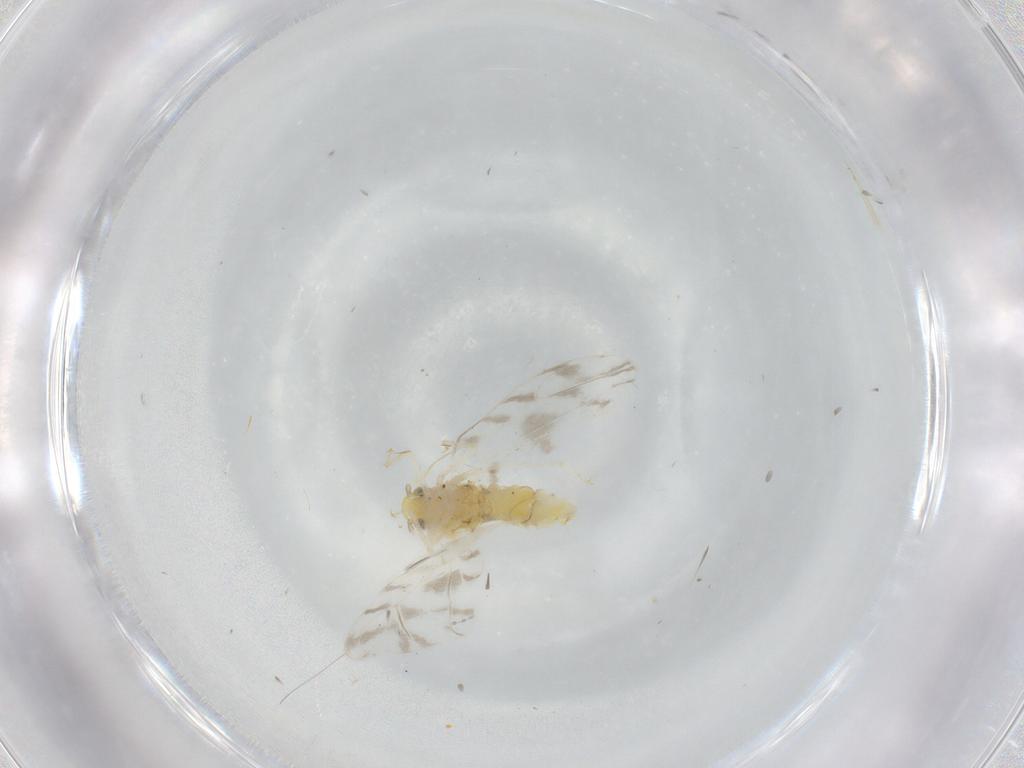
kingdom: Animalia
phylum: Arthropoda
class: Insecta
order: Hemiptera
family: Aleyrodidae
